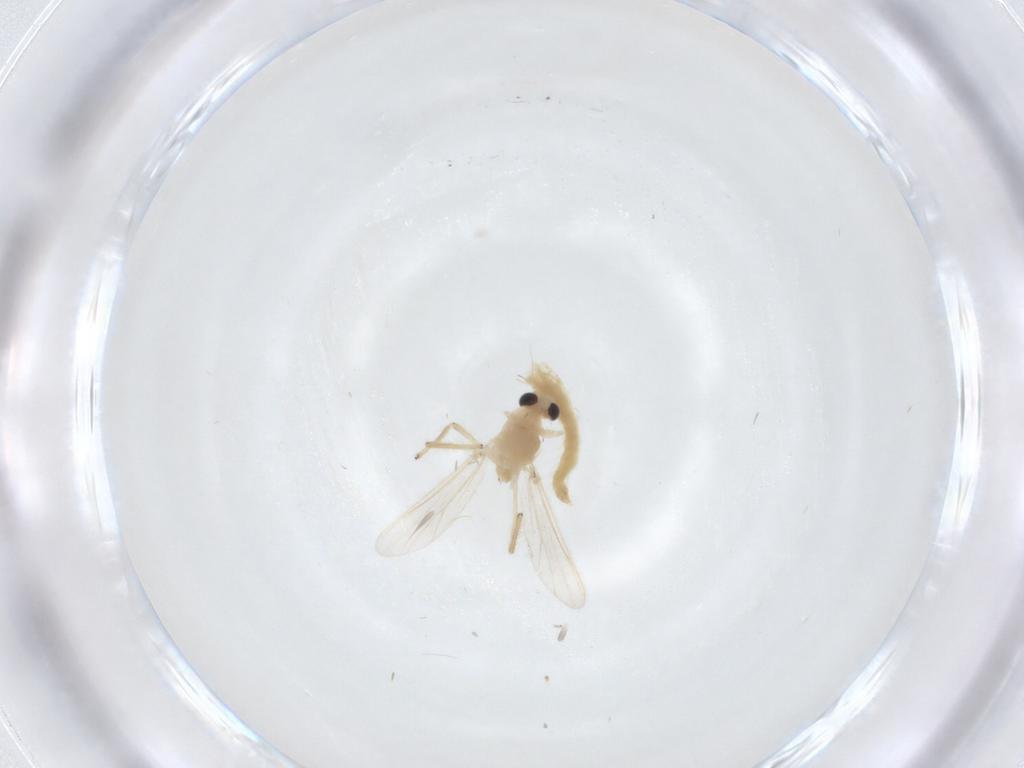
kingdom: Animalia
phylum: Arthropoda
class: Insecta
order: Diptera
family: Chironomidae
